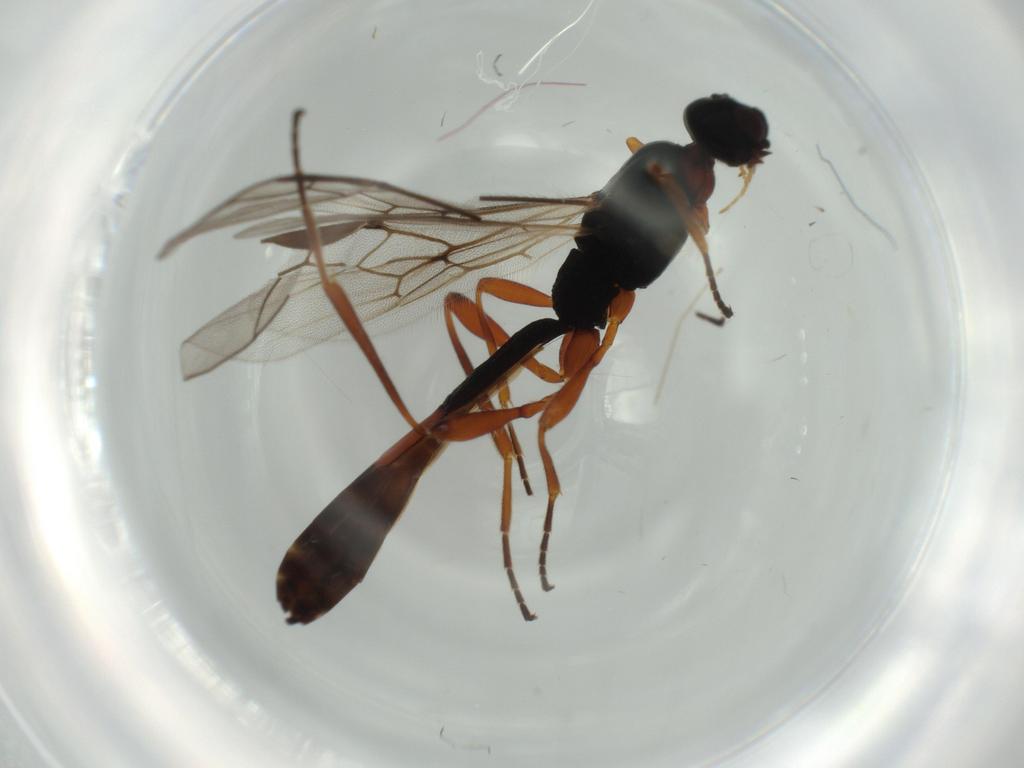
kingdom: Animalia
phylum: Arthropoda
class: Insecta
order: Hymenoptera
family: Braconidae
